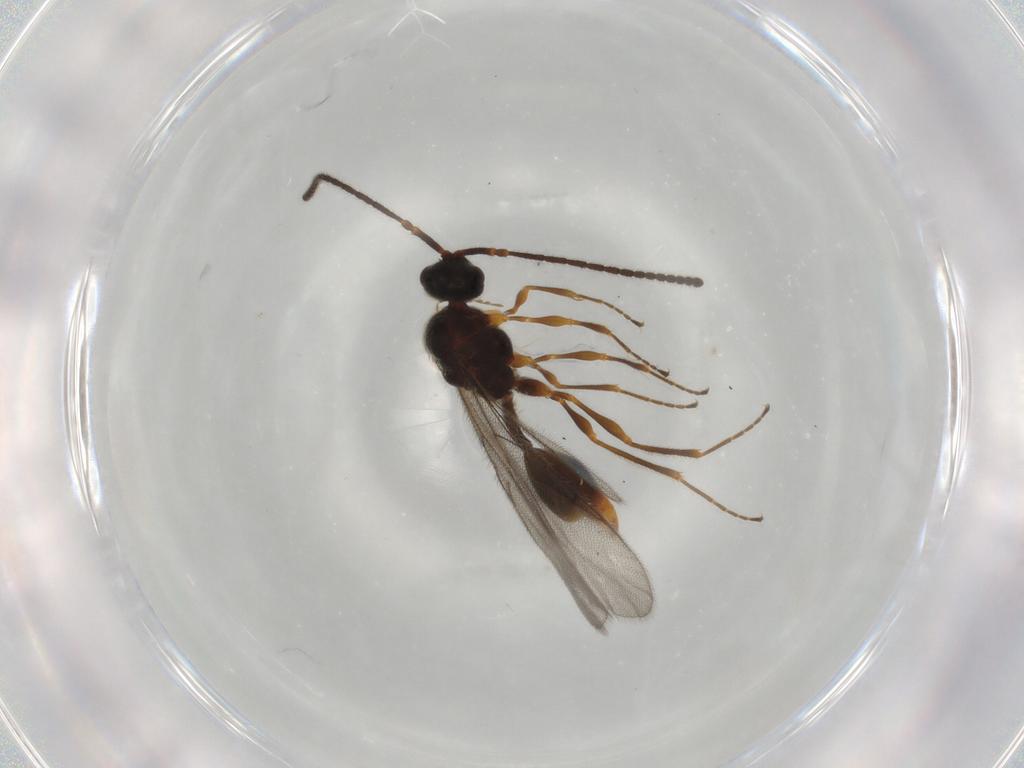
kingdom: Animalia
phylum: Arthropoda
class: Insecta
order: Hymenoptera
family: Diapriidae
